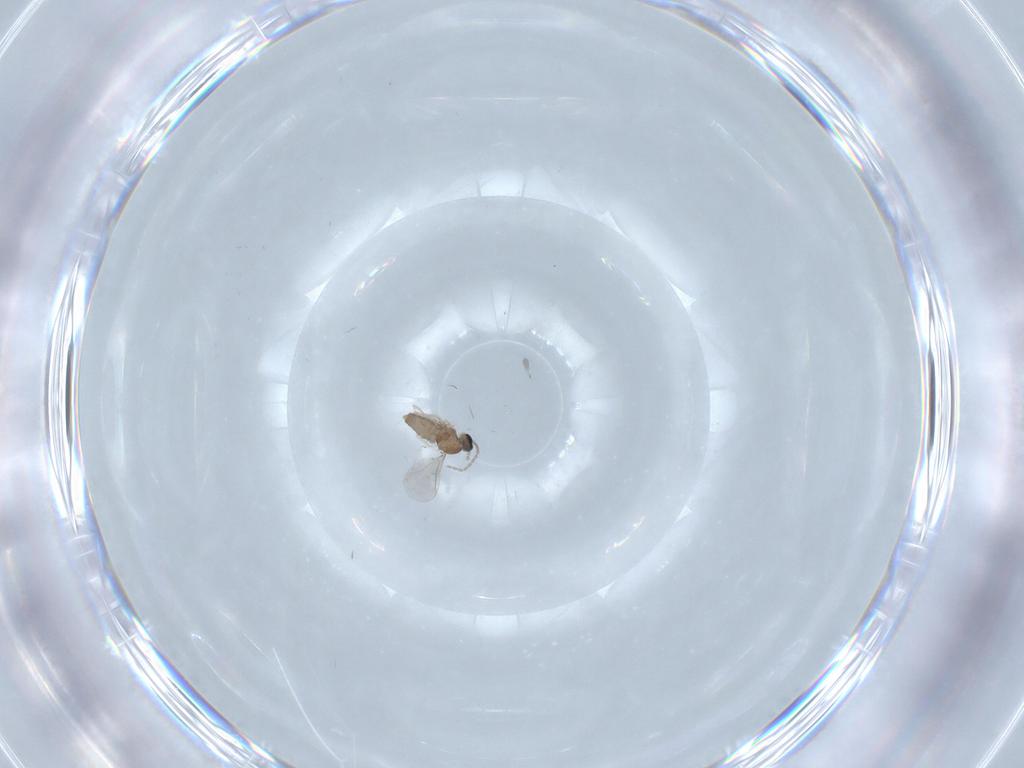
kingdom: Animalia
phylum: Arthropoda
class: Insecta
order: Diptera
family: Cecidomyiidae
